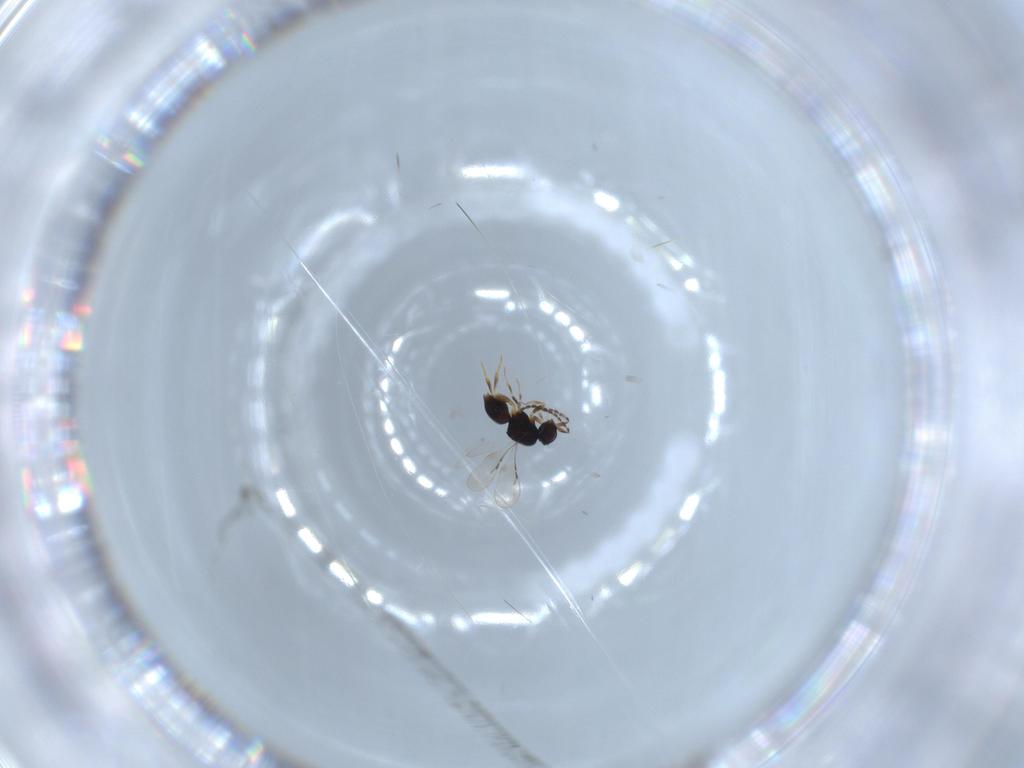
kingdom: Animalia
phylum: Arthropoda
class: Insecta
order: Hymenoptera
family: Ceraphronidae
